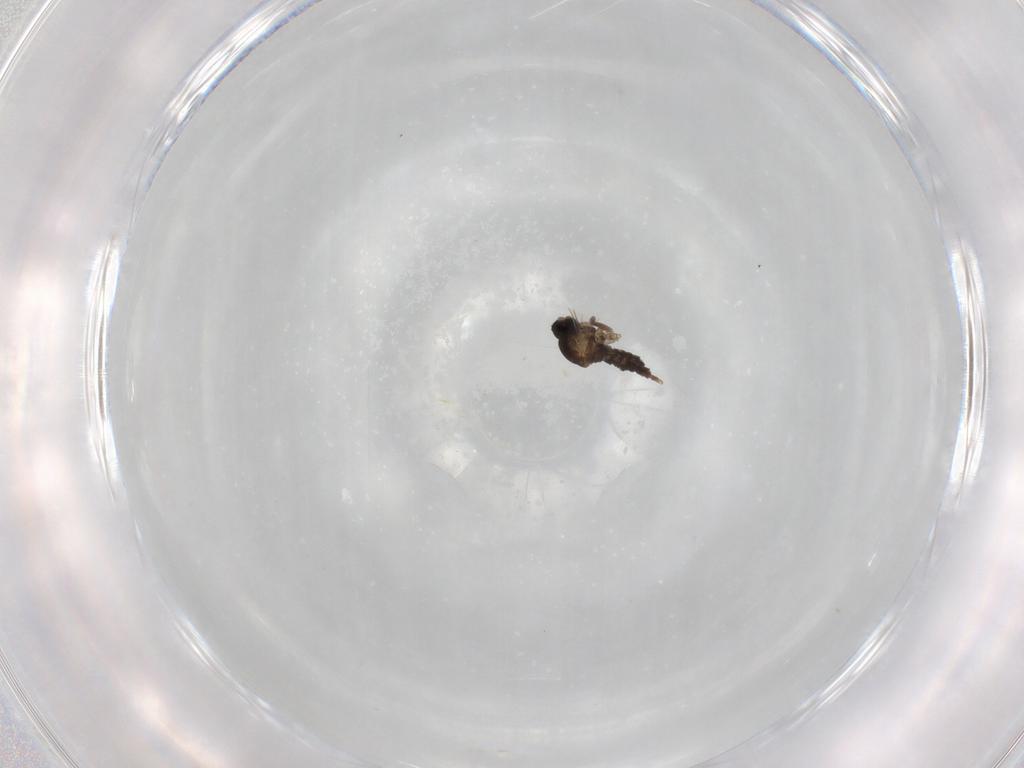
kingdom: Animalia
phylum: Arthropoda
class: Insecta
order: Diptera
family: Cecidomyiidae
